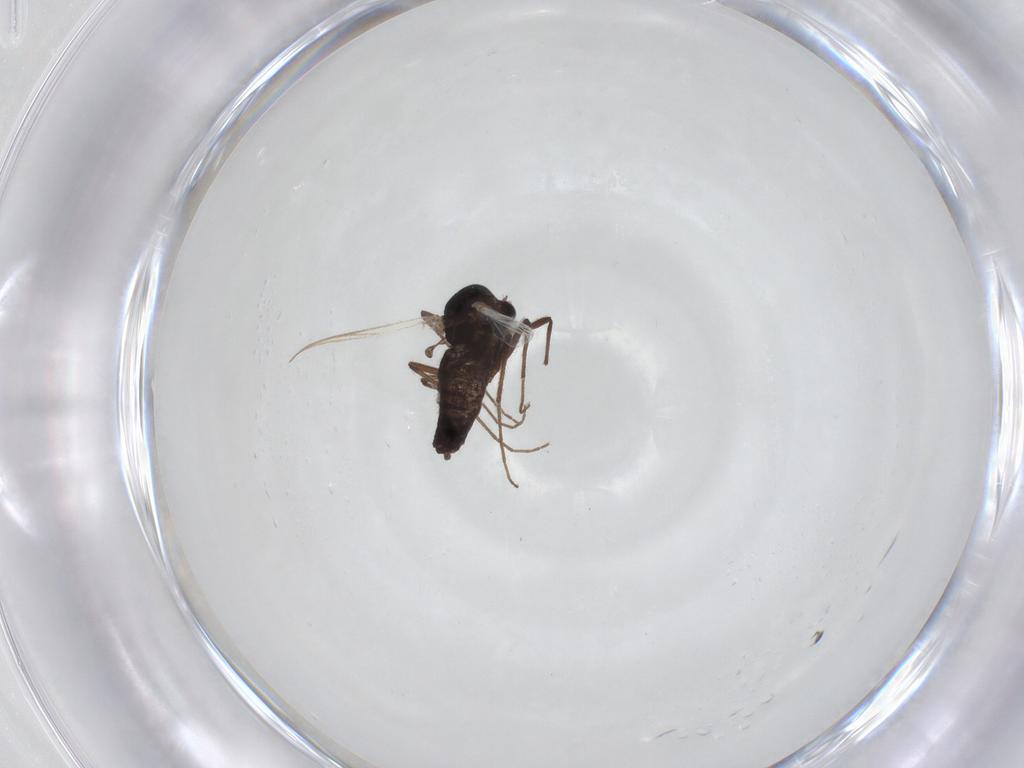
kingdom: Animalia
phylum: Arthropoda
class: Insecta
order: Diptera
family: Chironomidae
